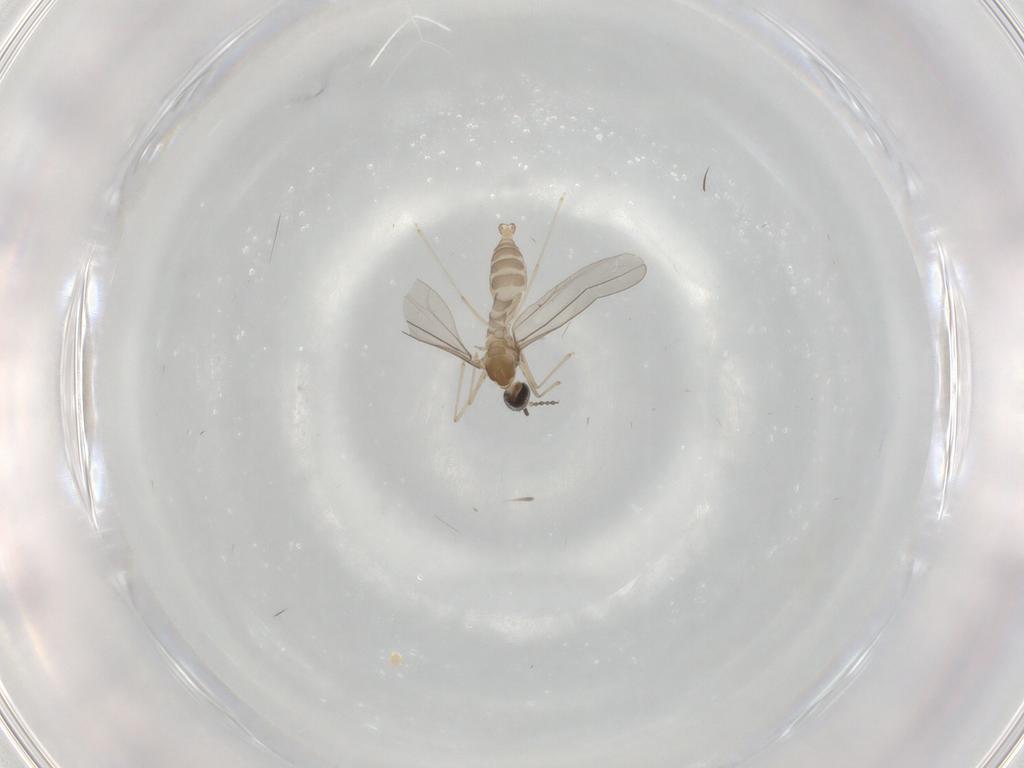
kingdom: Animalia
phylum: Arthropoda
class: Insecta
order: Diptera
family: Cecidomyiidae
